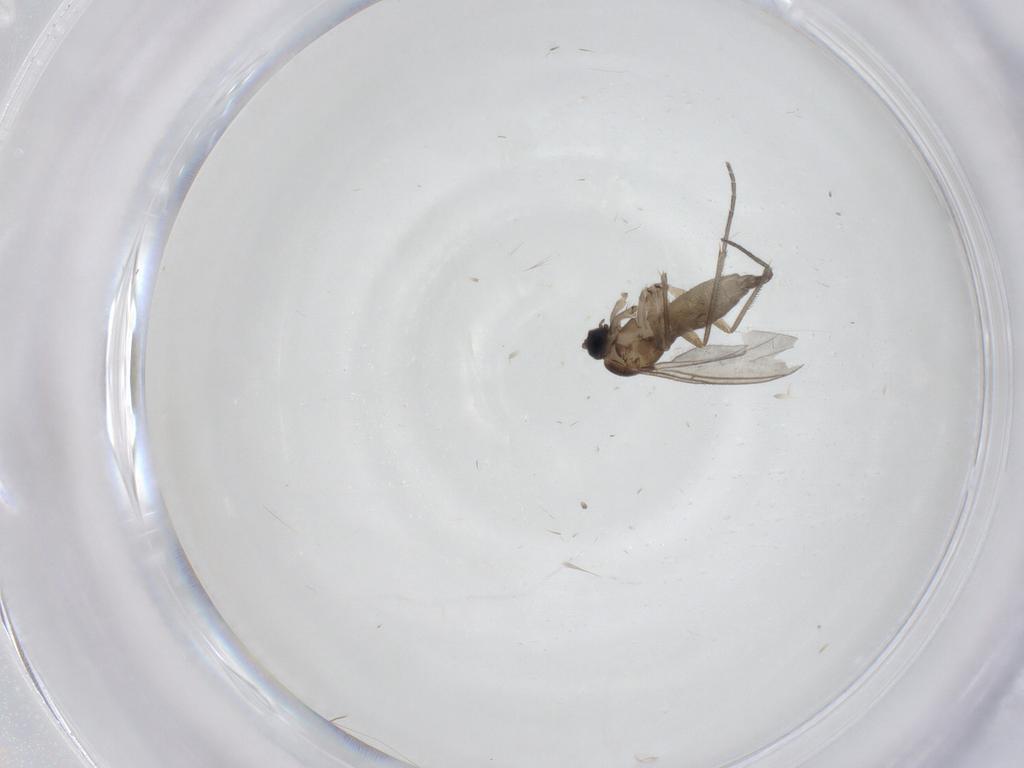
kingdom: Animalia
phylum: Arthropoda
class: Insecta
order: Diptera
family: Sciaridae
